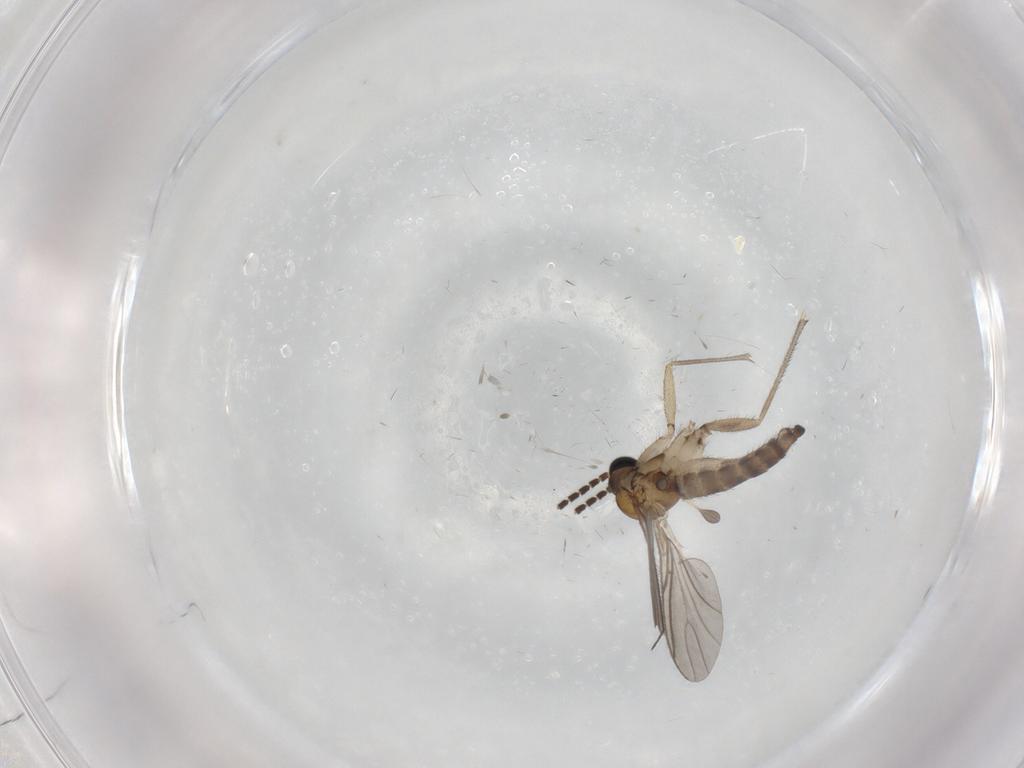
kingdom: Animalia
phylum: Arthropoda
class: Insecta
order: Diptera
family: Sciaridae
